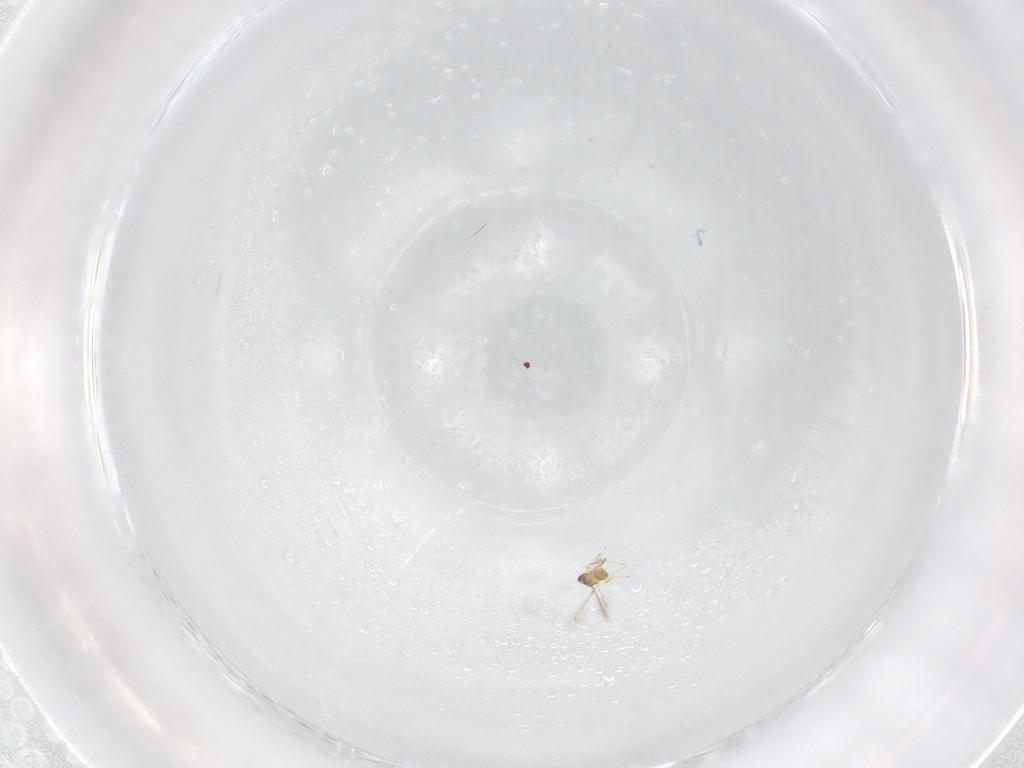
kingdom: Animalia
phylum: Arthropoda
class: Insecta
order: Hymenoptera
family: Mymaridae
